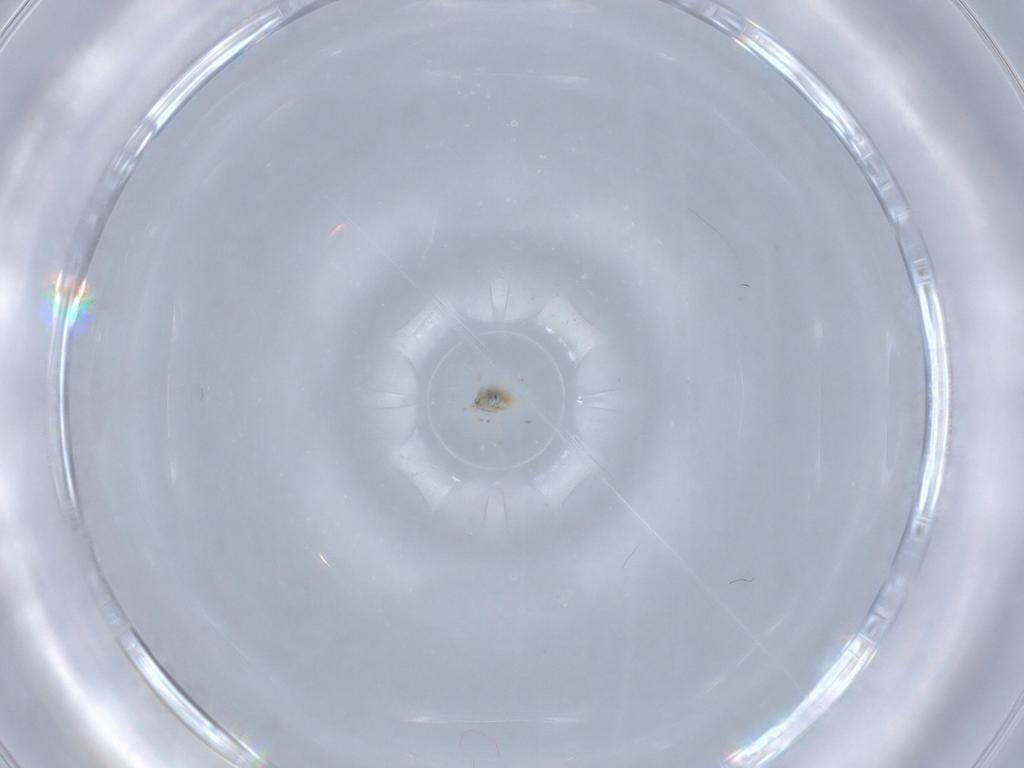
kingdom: Animalia
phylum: Arthropoda
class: Insecta
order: Neuroptera
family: Coniopterygidae
